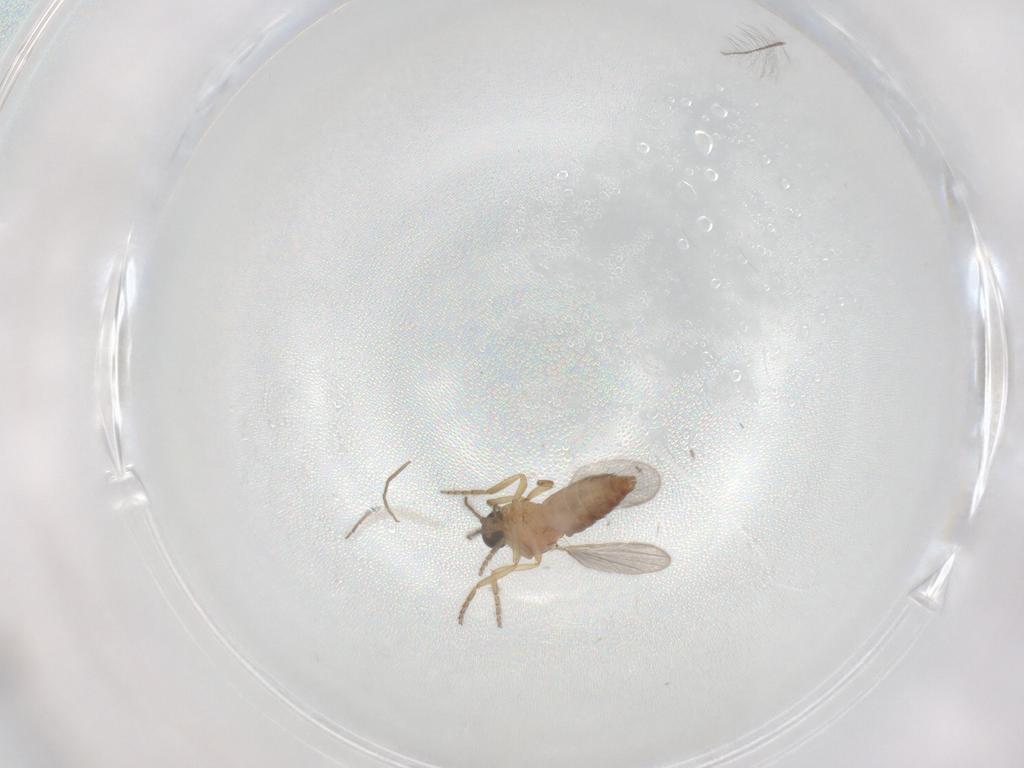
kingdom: Animalia
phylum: Arthropoda
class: Insecta
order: Diptera
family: Ceratopogonidae
